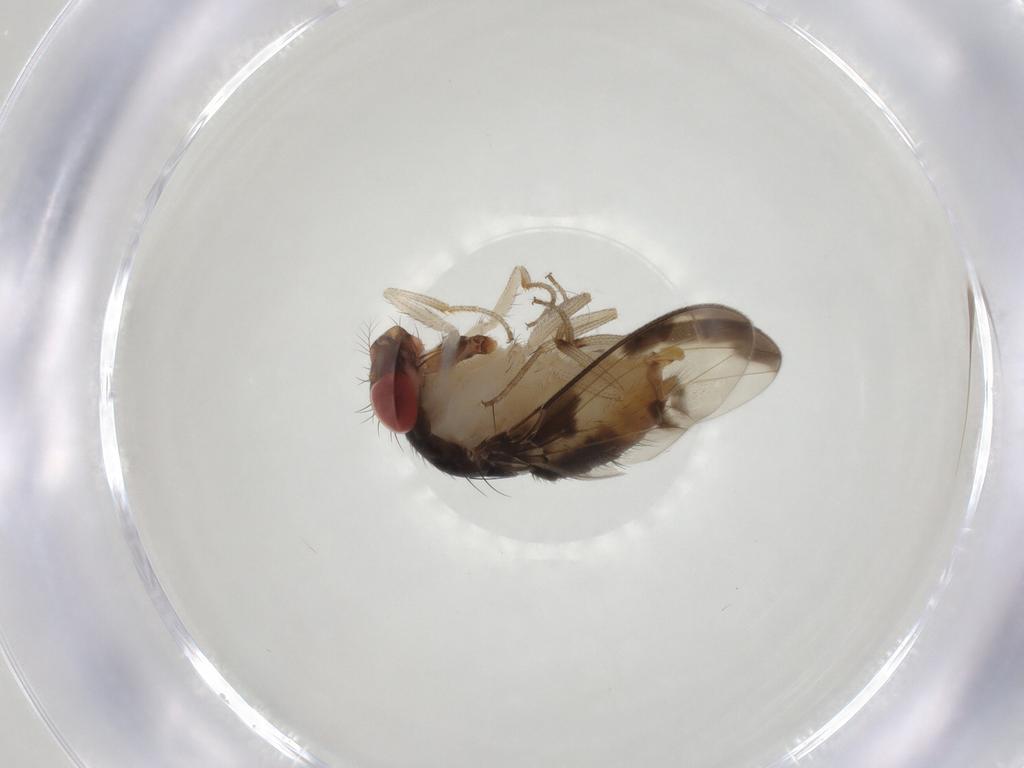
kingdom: Animalia
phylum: Arthropoda
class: Insecta
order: Diptera
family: Drosophilidae
